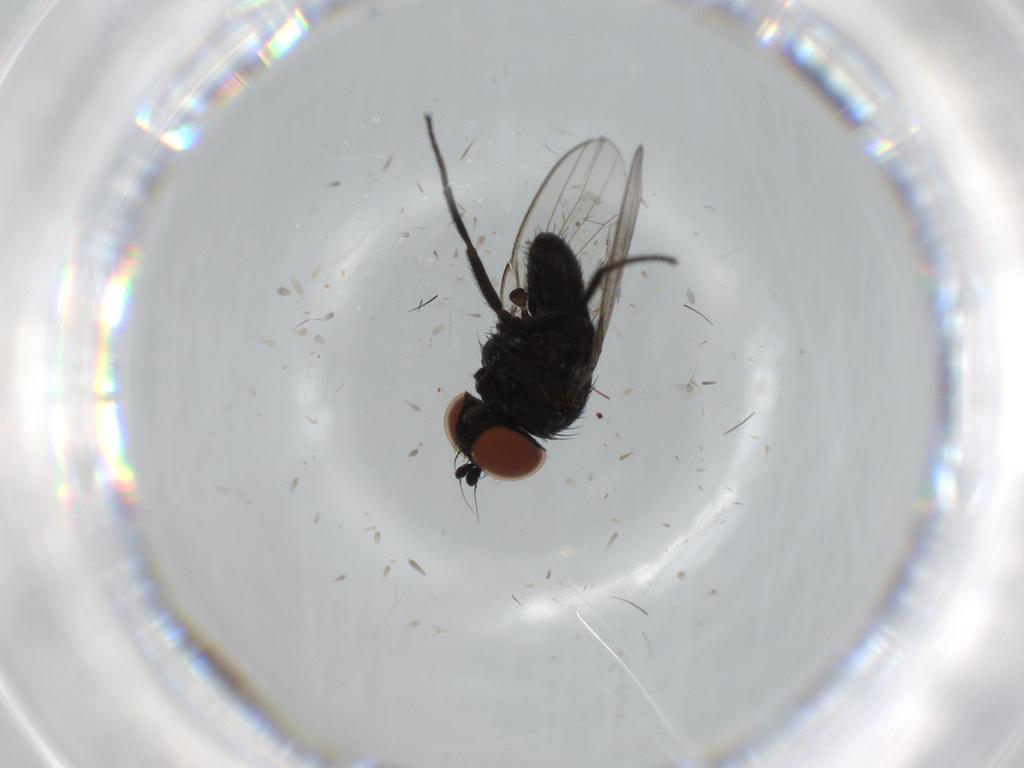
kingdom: Animalia
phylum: Arthropoda
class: Insecta
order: Diptera
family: Milichiidae
